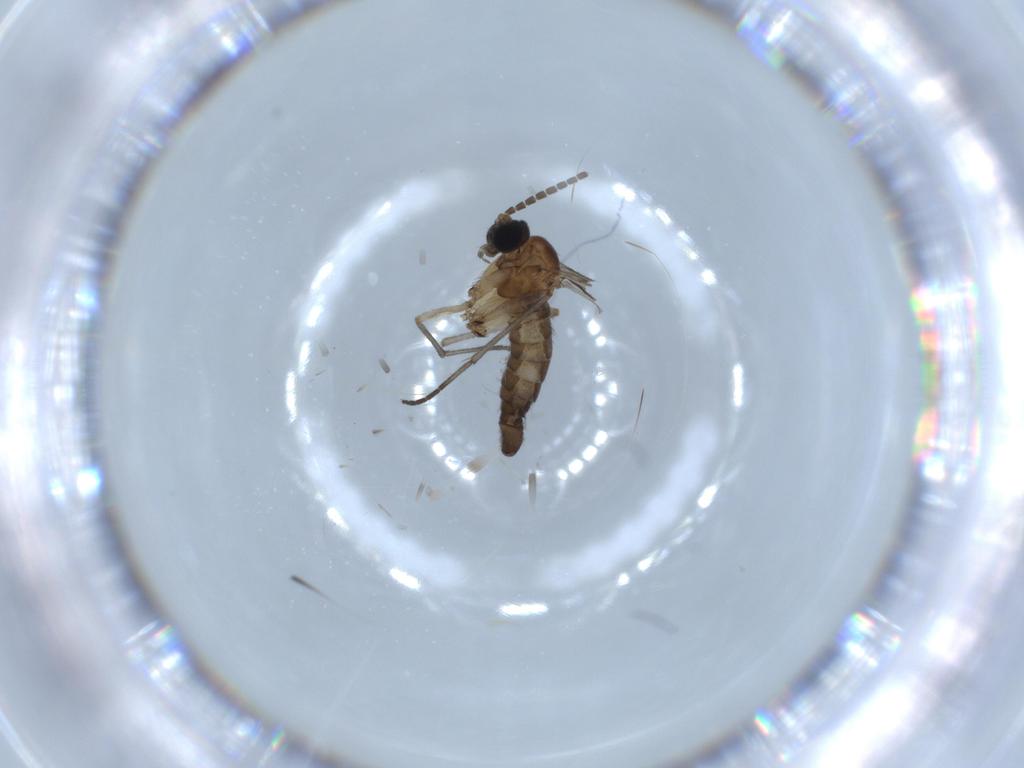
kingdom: Animalia
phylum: Arthropoda
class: Insecta
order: Diptera
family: Sciaridae
